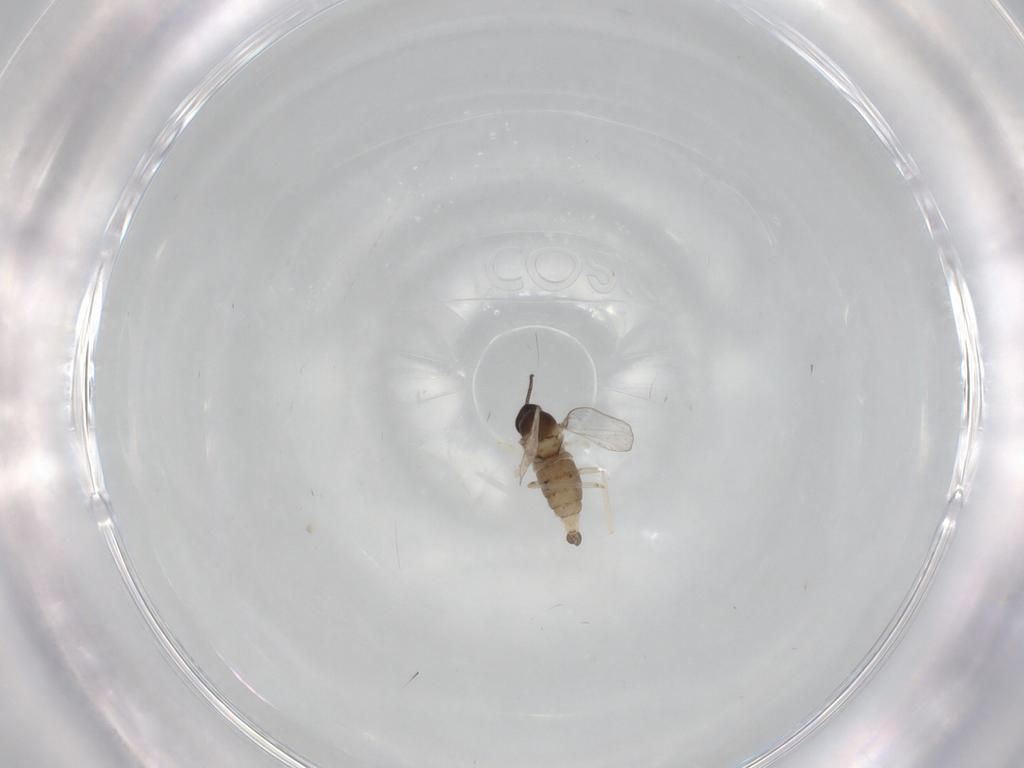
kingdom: Animalia
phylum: Arthropoda
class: Insecta
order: Diptera
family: Cecidomyiidae
